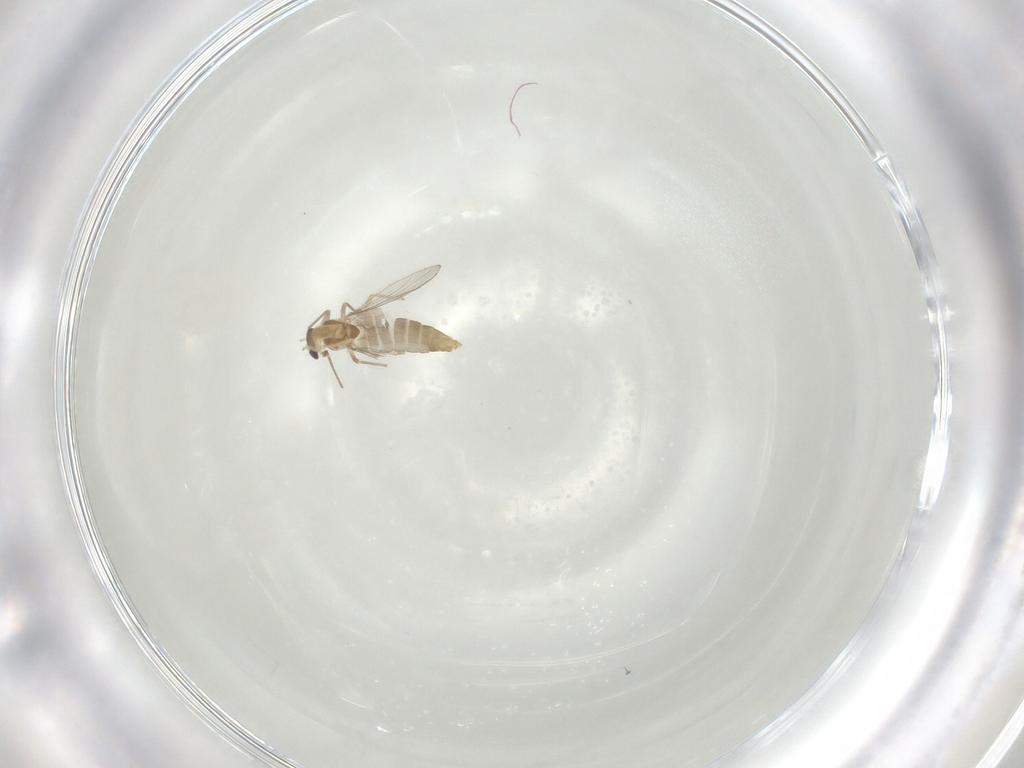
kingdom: Animalia
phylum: Arthropoda
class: Insecta
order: Diptera
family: Chironomidae
